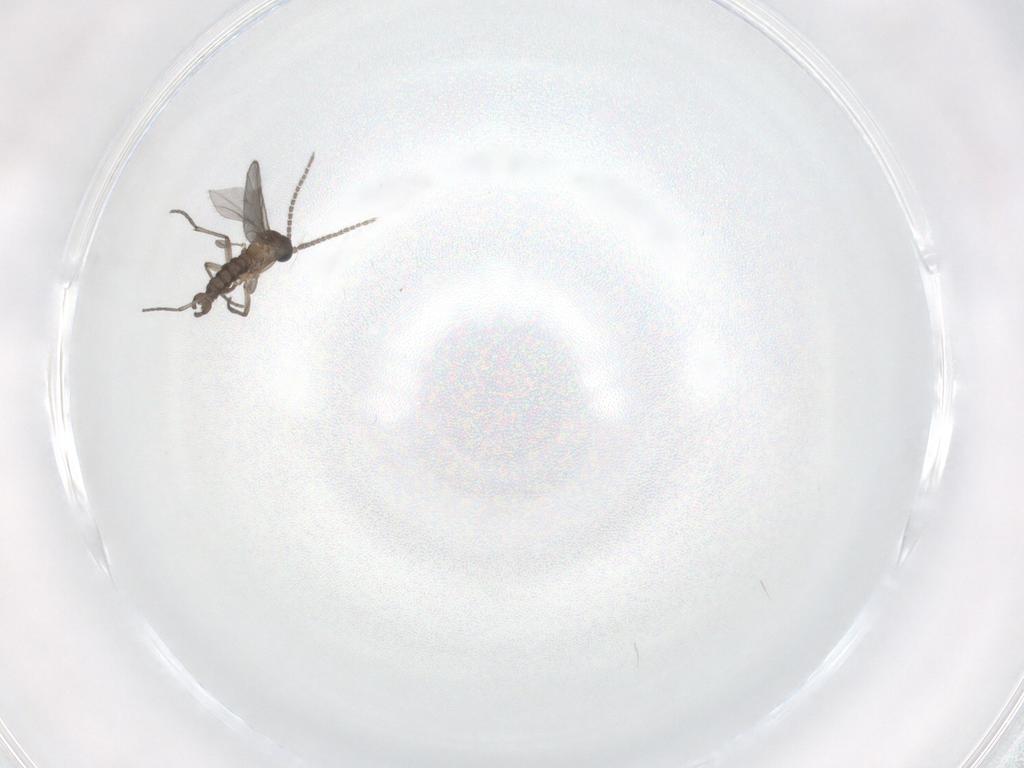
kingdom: Animalia
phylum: Arthropoda
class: Insecta
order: Diptera
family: Sciaridae
